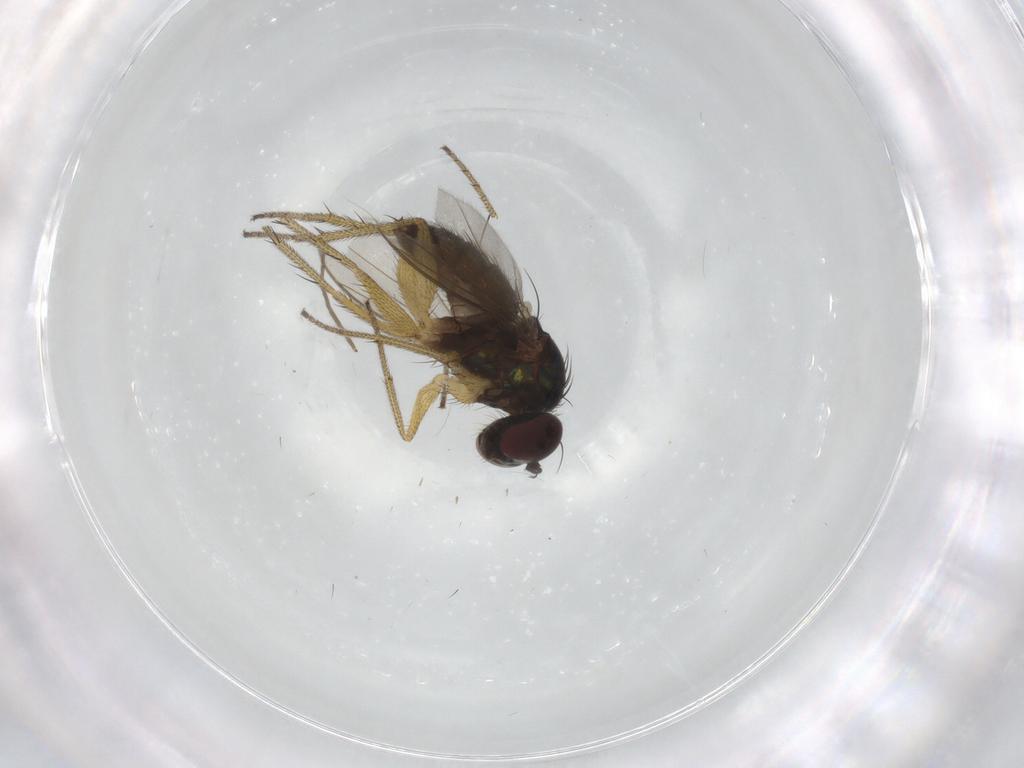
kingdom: Animalia
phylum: Arthropoda
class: Insecta
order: Diptera
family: Dolichopodidae
